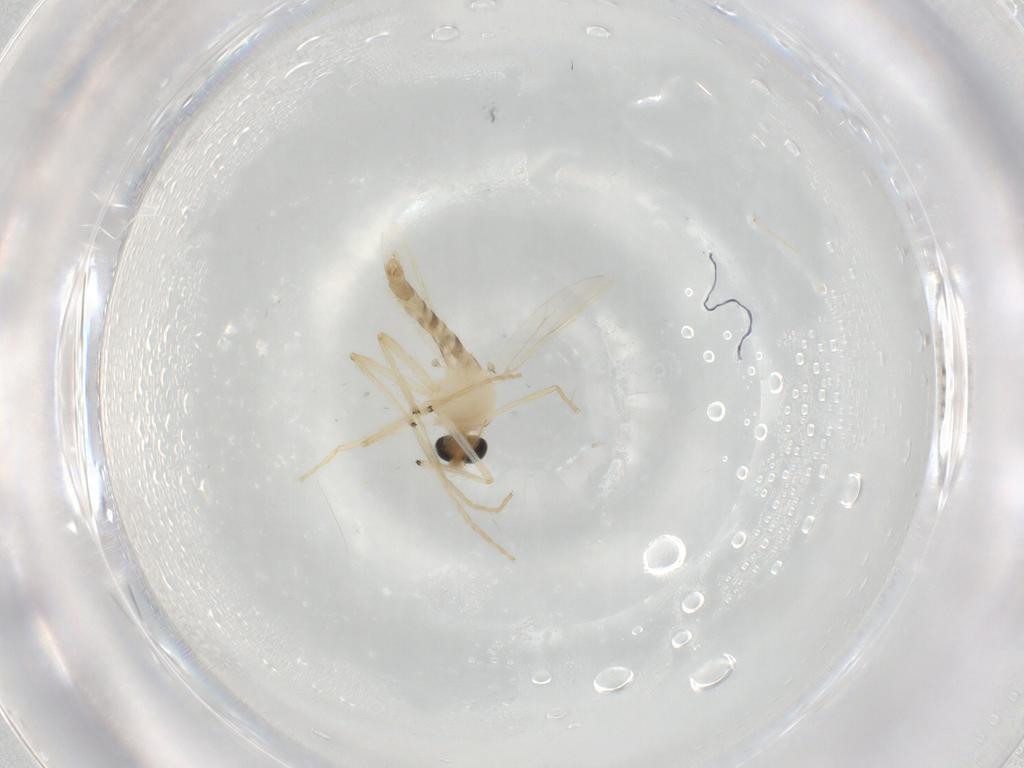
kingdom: Animalia
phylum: Arthropoda
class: Insecta
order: Diptera
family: Chironomidae
